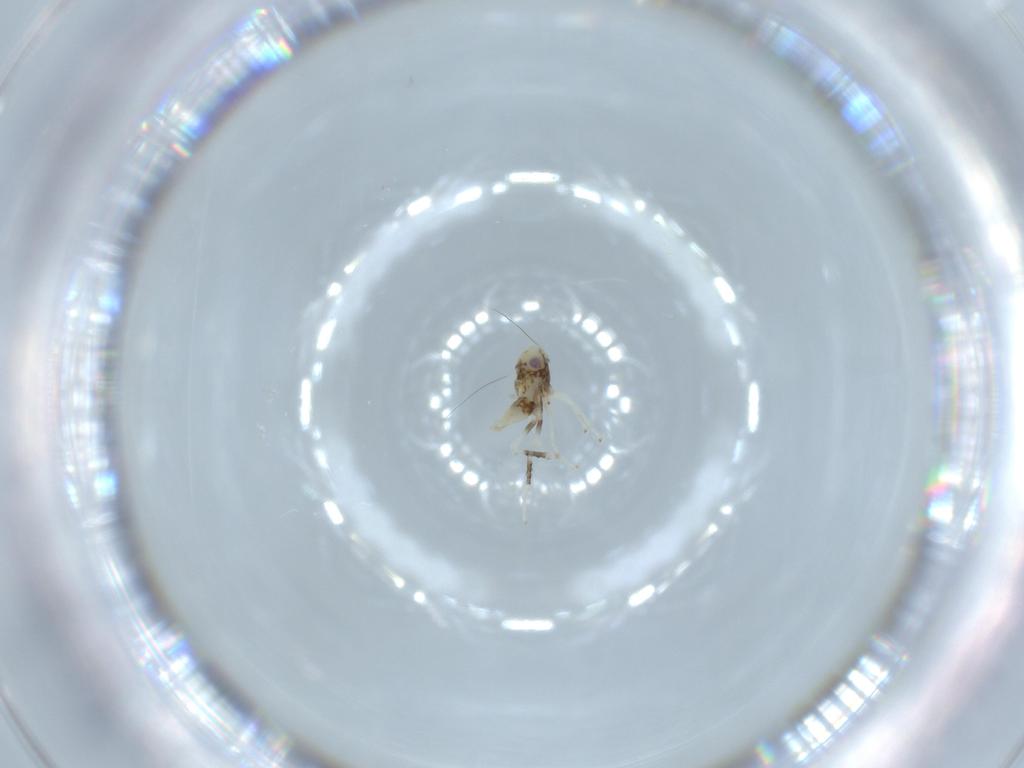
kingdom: Animalia
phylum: Arthropoda
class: Insecta
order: Hemiptera
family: Cicadellidae
